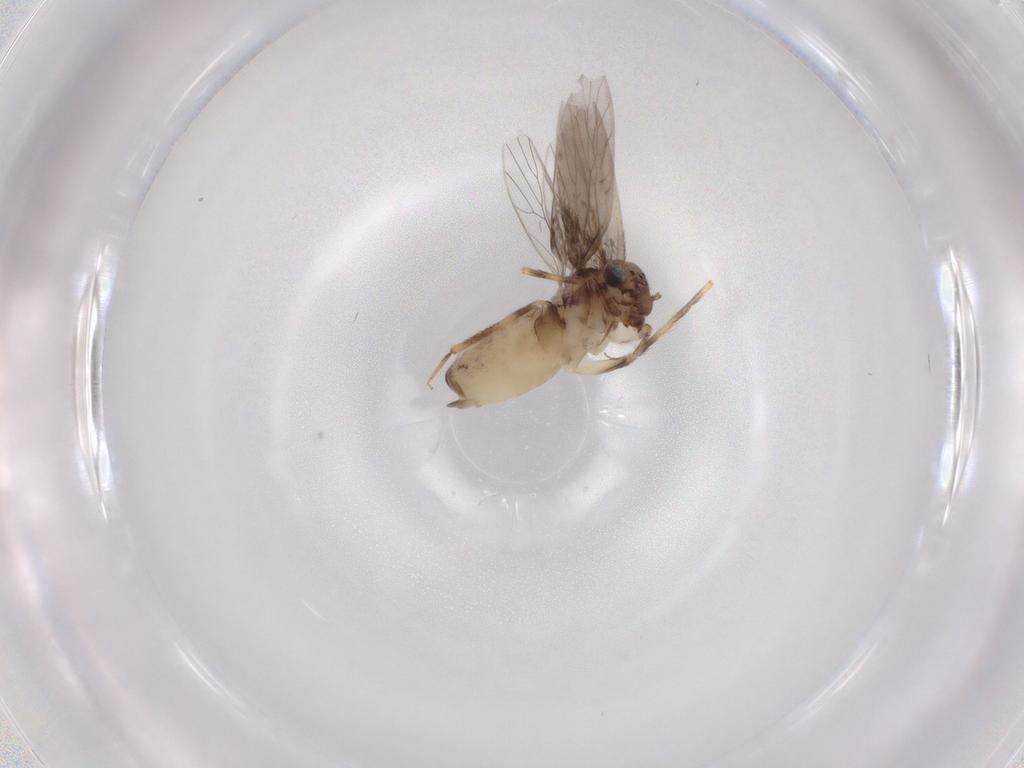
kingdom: Animalia
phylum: Arthropoda
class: Insecta
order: Psocodea
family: Lepidopsocidae
